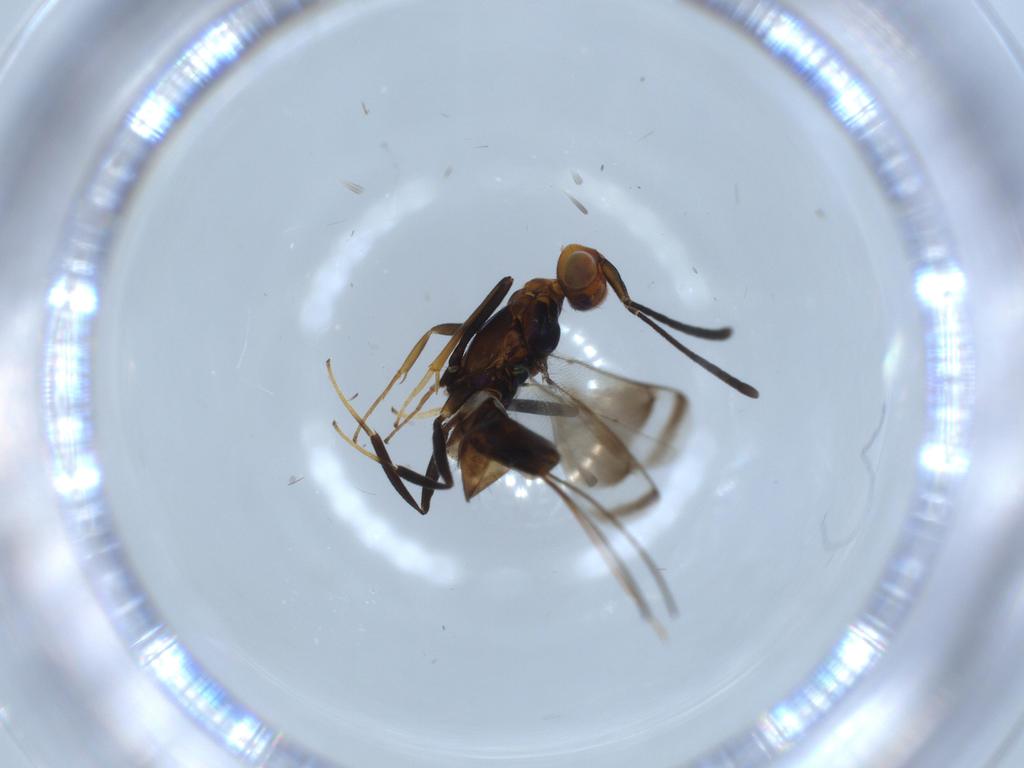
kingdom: Animalia
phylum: Arthropoda
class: Insecta
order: Hymenoptera
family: Eupelmidae
